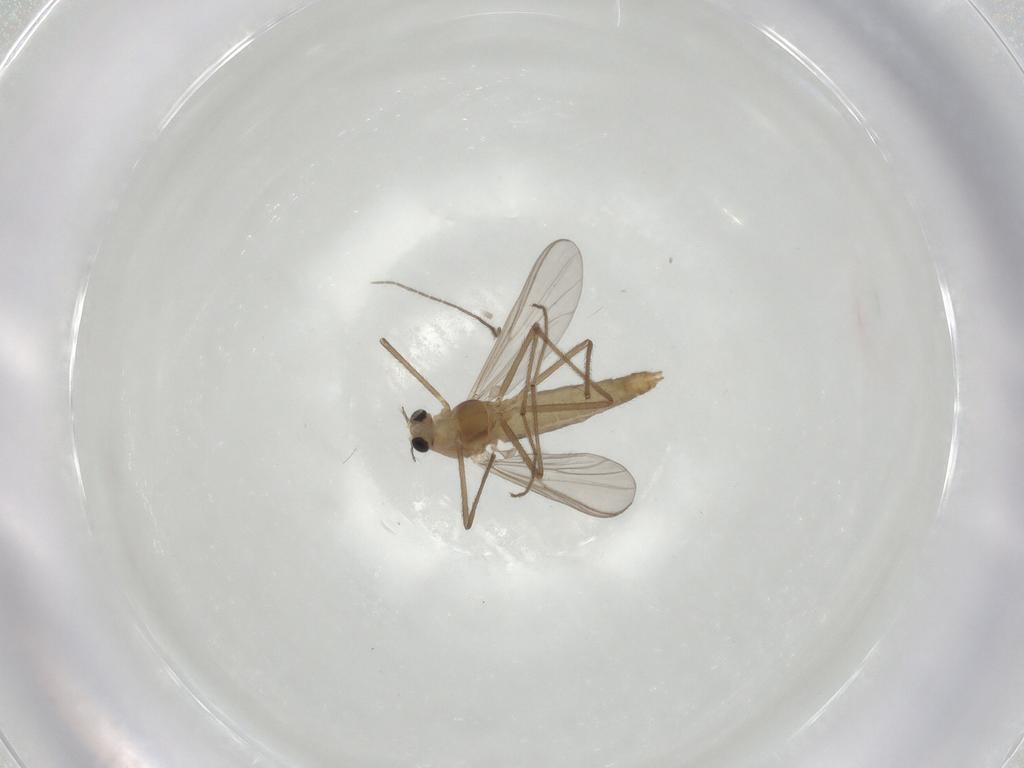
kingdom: Animalia
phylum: Arthropoda
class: Insecta
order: Diptera
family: Chironomidae
